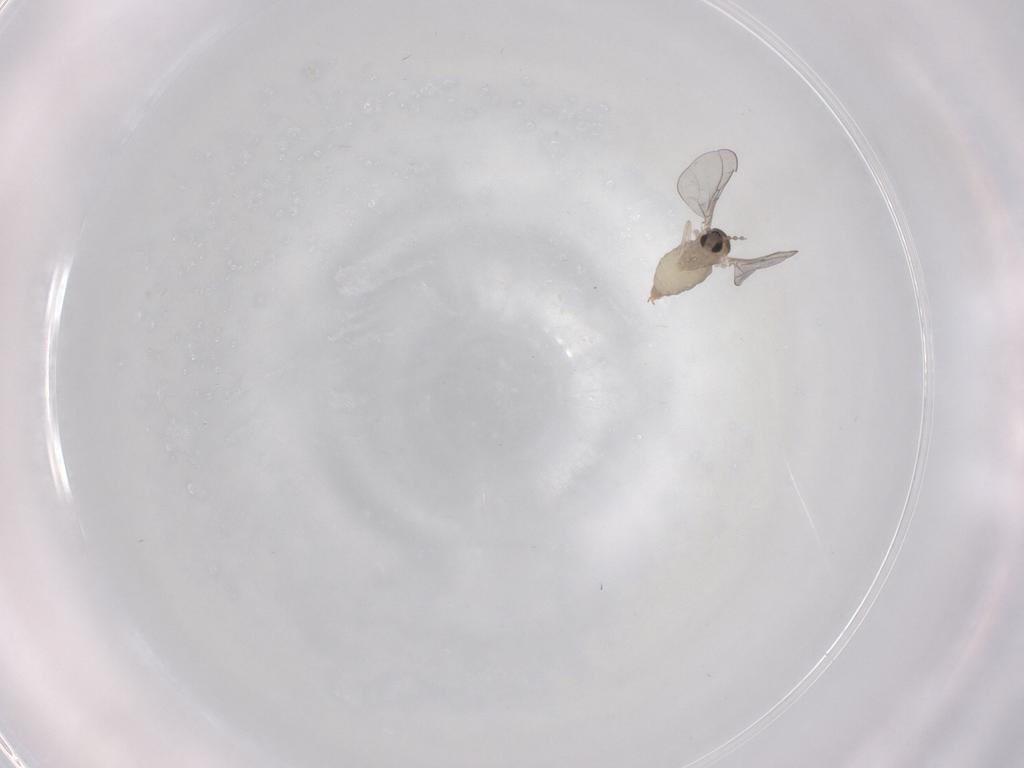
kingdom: Animalia
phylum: Arthropoda
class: Insecta
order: Diptera
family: Cecidomyiidae
